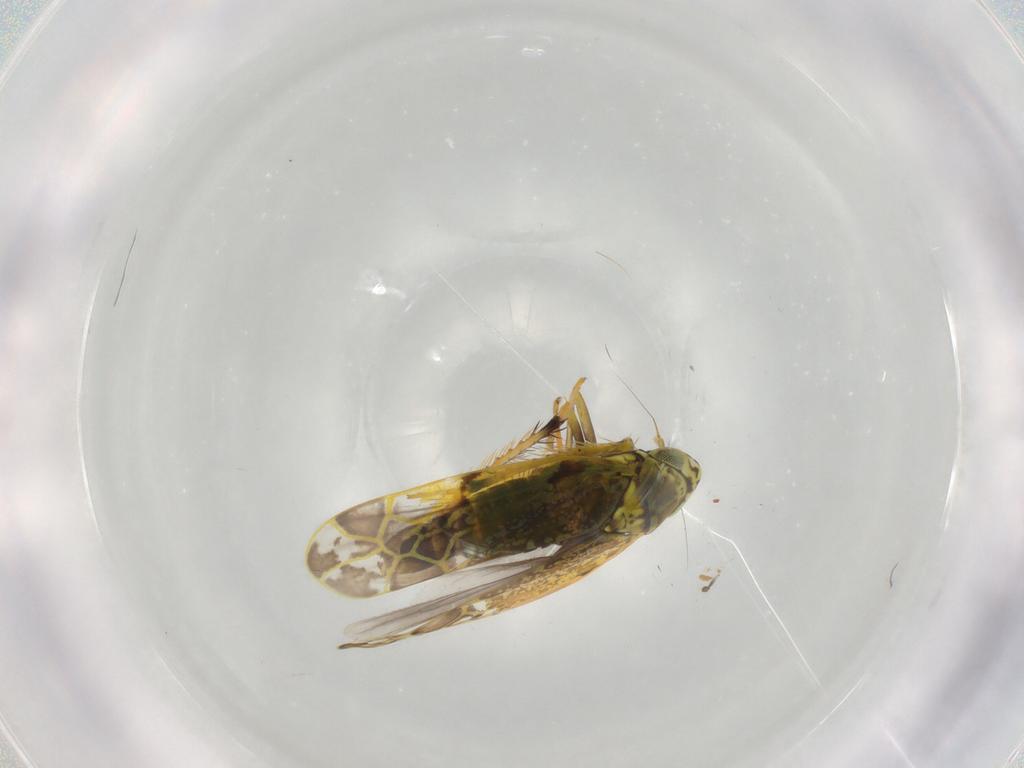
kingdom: Animalia
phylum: Arthropoda
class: Insecta
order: Hemiptera
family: Cicadellidae
